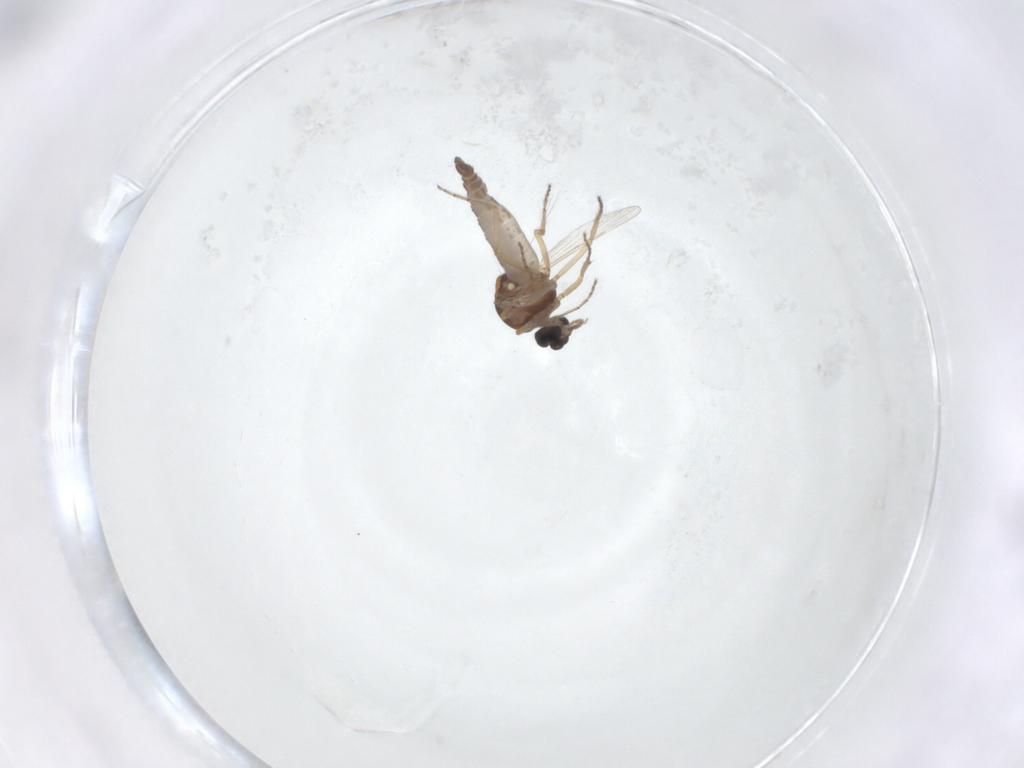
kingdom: Animalia
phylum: Arthropoda
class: Insecta
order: Diptera
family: Ceratopogonidae
